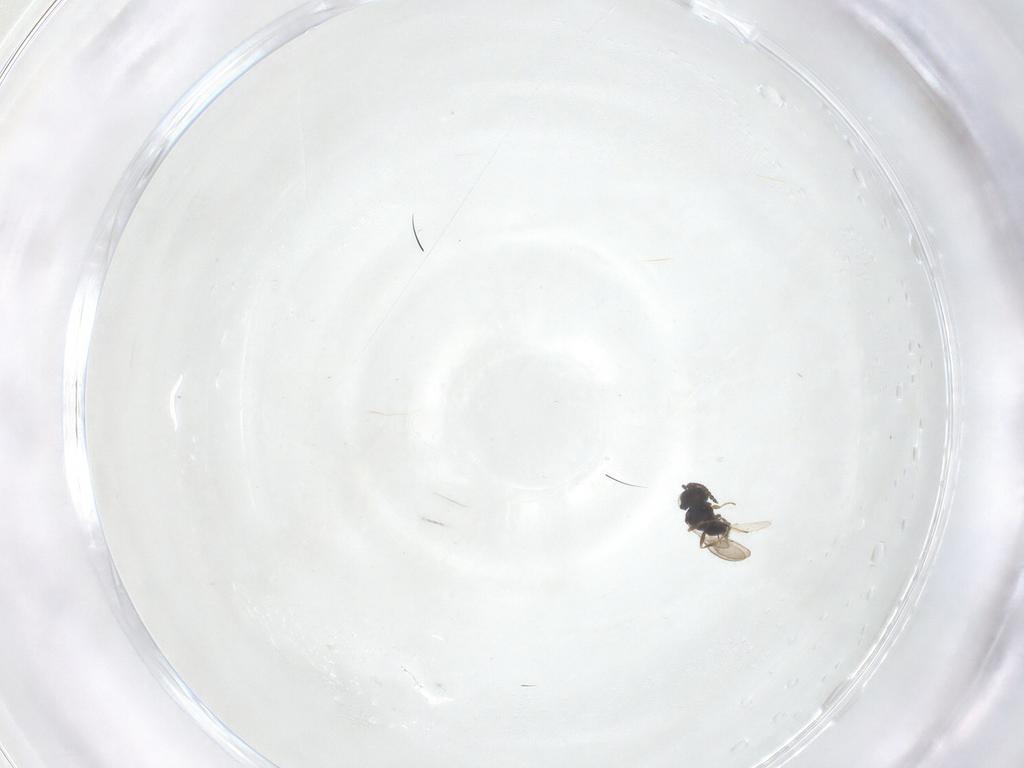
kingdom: Animalia
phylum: Arthropoda
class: Insecta
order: Hymenoptera
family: Scelionidae
